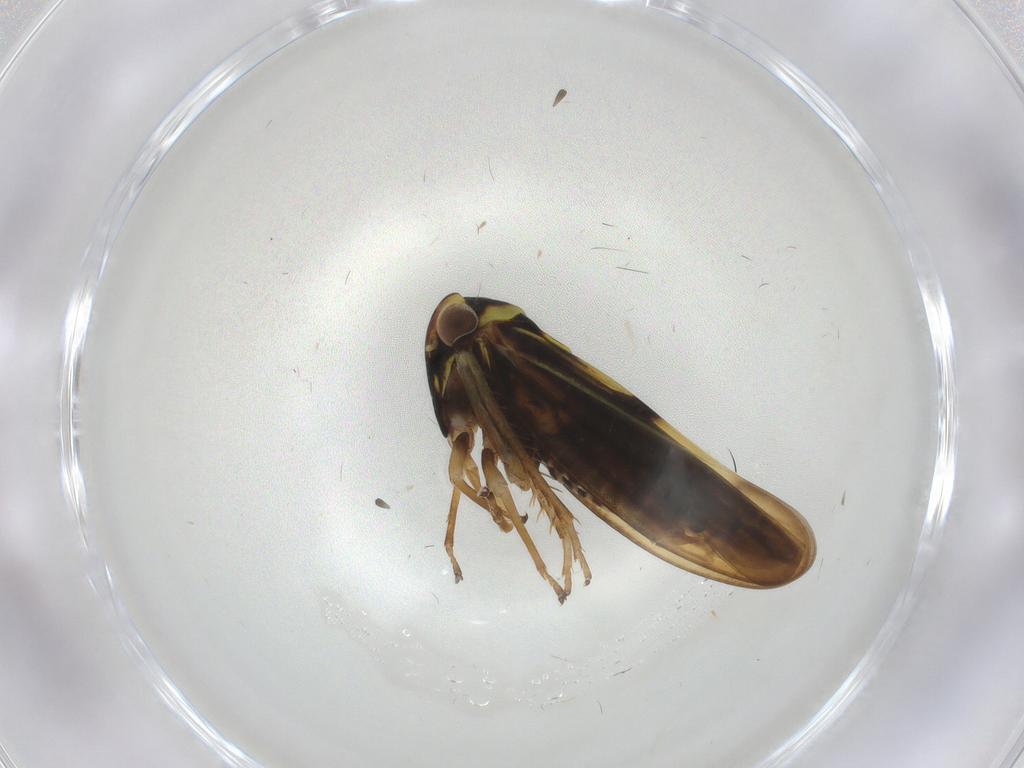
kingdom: Animalia
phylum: Arthropoda
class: Insecta
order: Hemiptera
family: Cicadellidae
